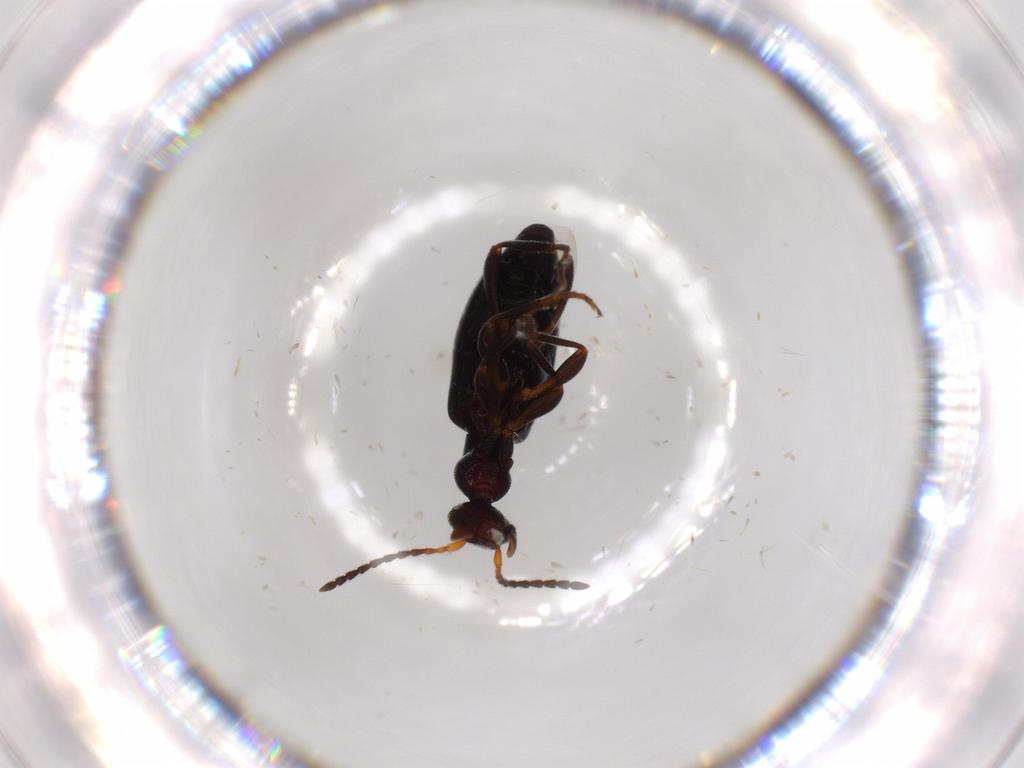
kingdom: Animalia
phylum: Arthropoda
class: Insecta
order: Coleoptera
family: Anthicidae
